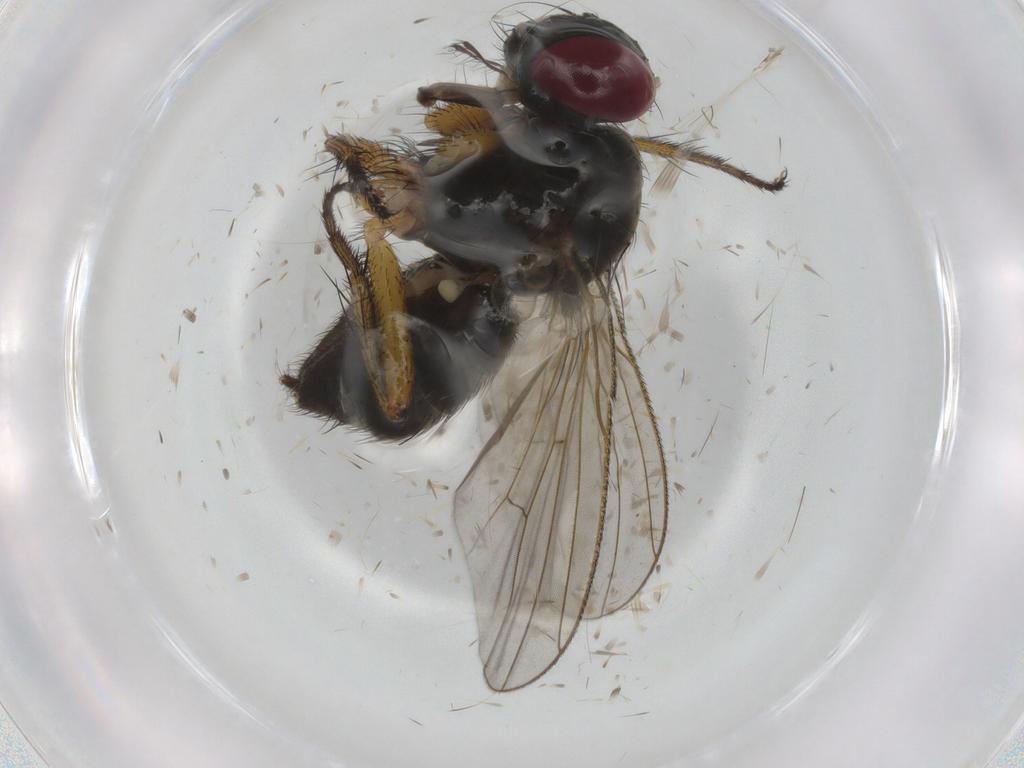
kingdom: Animalia
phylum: Arthropoda
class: Insecta
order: Diptera
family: Muscidae
